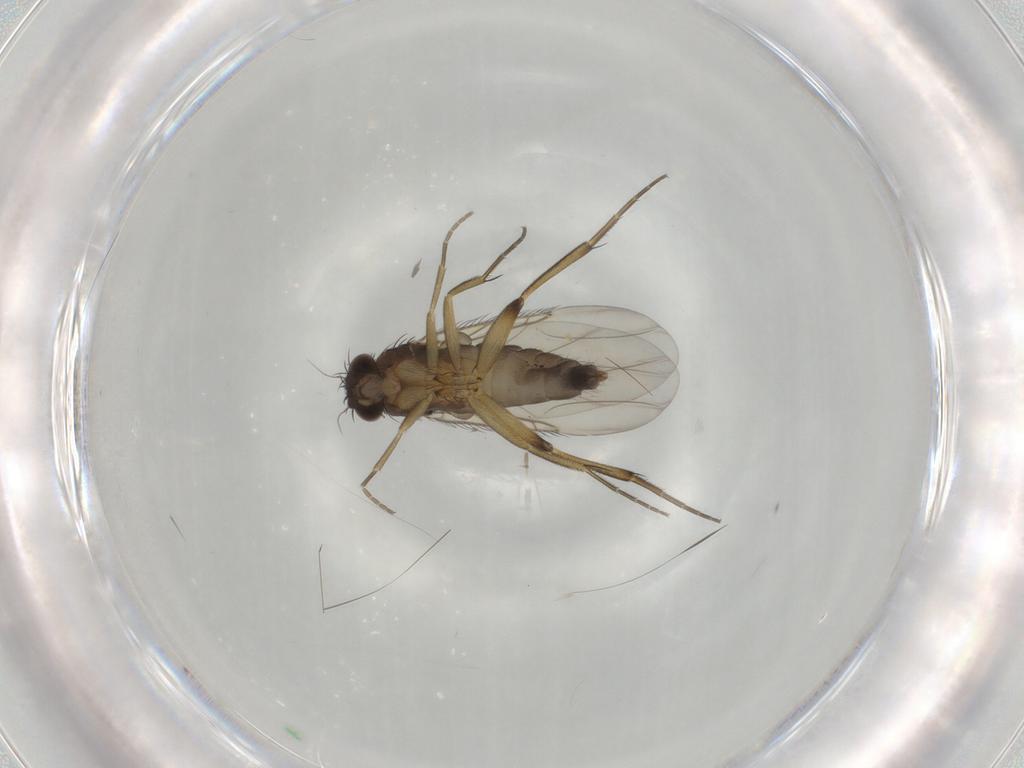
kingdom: Animalia
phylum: Arthropoda
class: Insecta
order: Diptera
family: Phoridae
